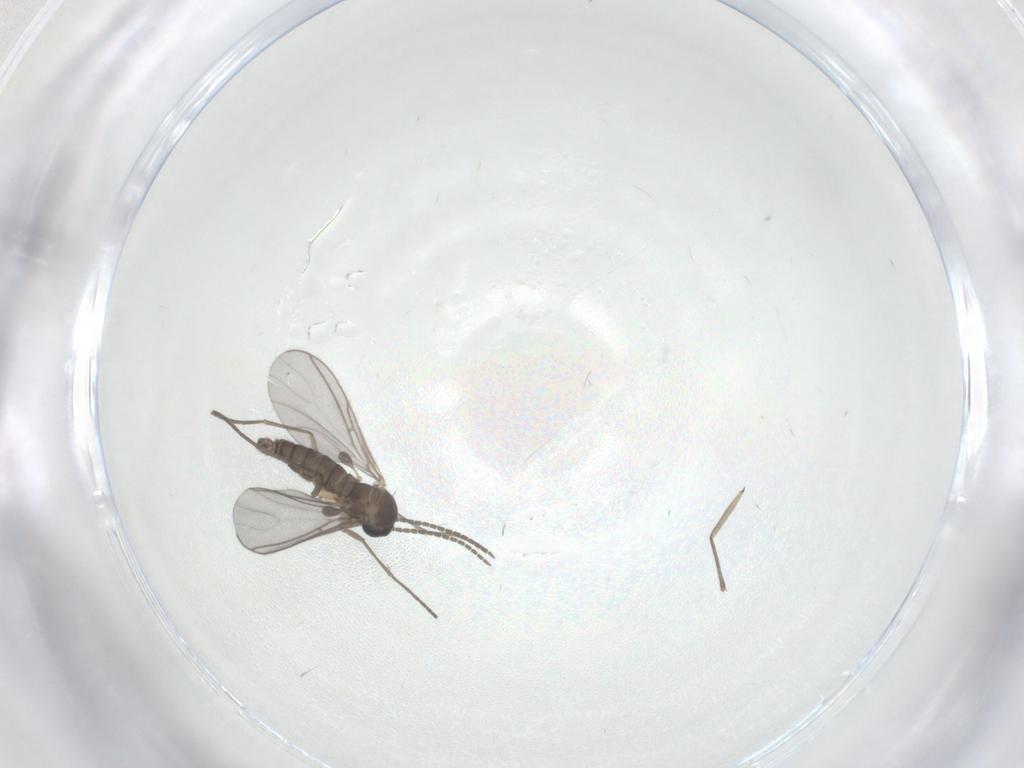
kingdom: Animalia
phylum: Arthropoda
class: Insecta
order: Diptera
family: Sciaridae
